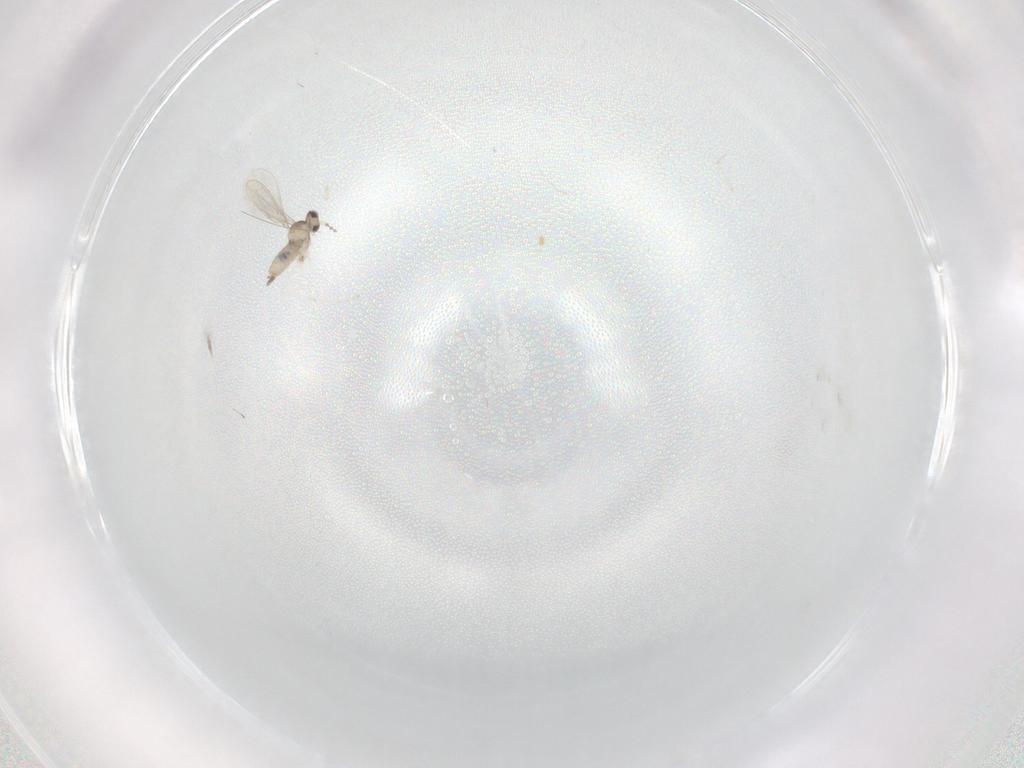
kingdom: Animalia
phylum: Arthropoda
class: Insecta
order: Diptera
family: Cecidomyiidae
